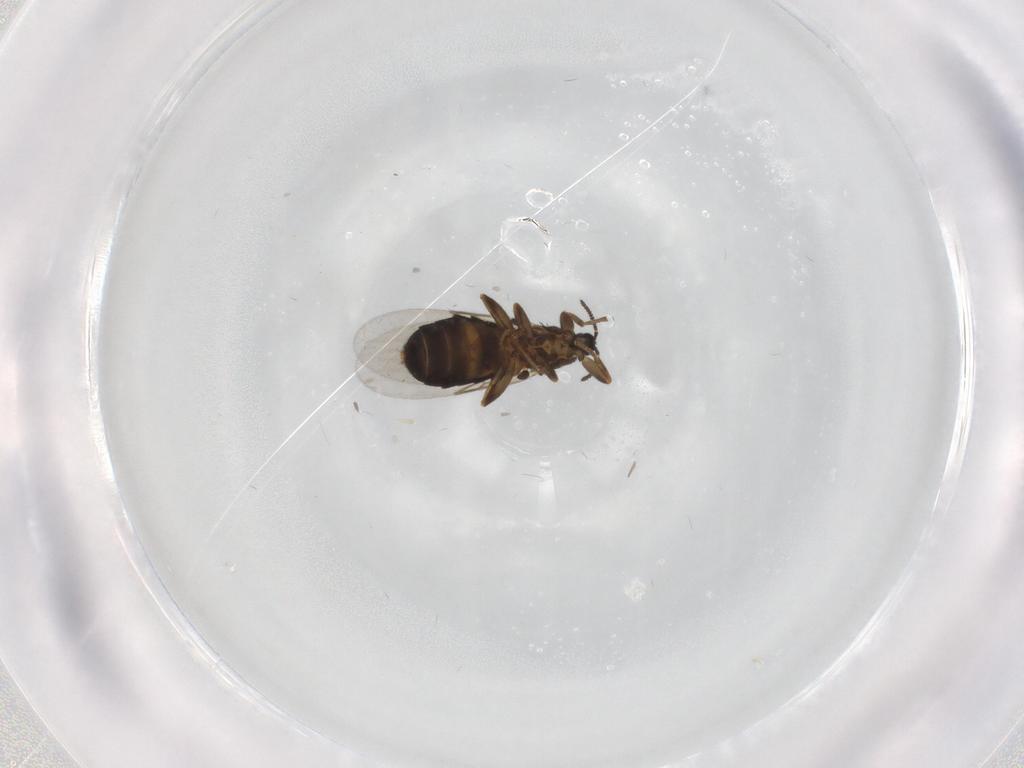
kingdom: Animalia
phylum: Arthropoda
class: Insecta
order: Diptera
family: Scatopsidae
